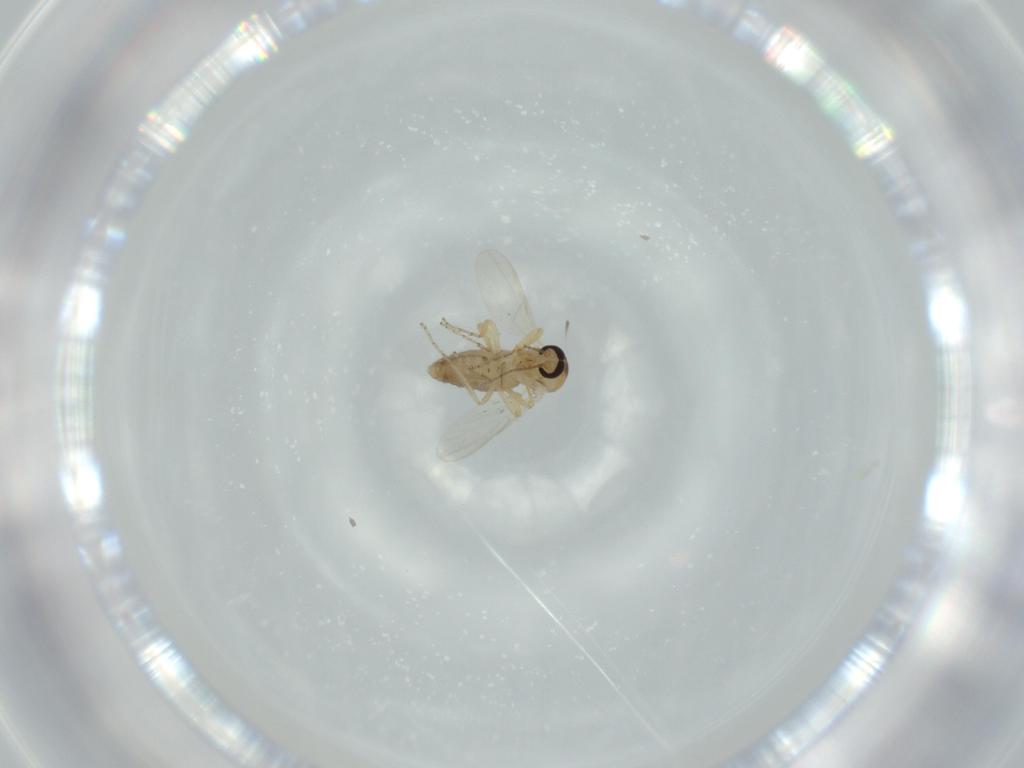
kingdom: Animalia
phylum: Arthropoda
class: Insecta
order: Diptera
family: Ceratopogonidae
